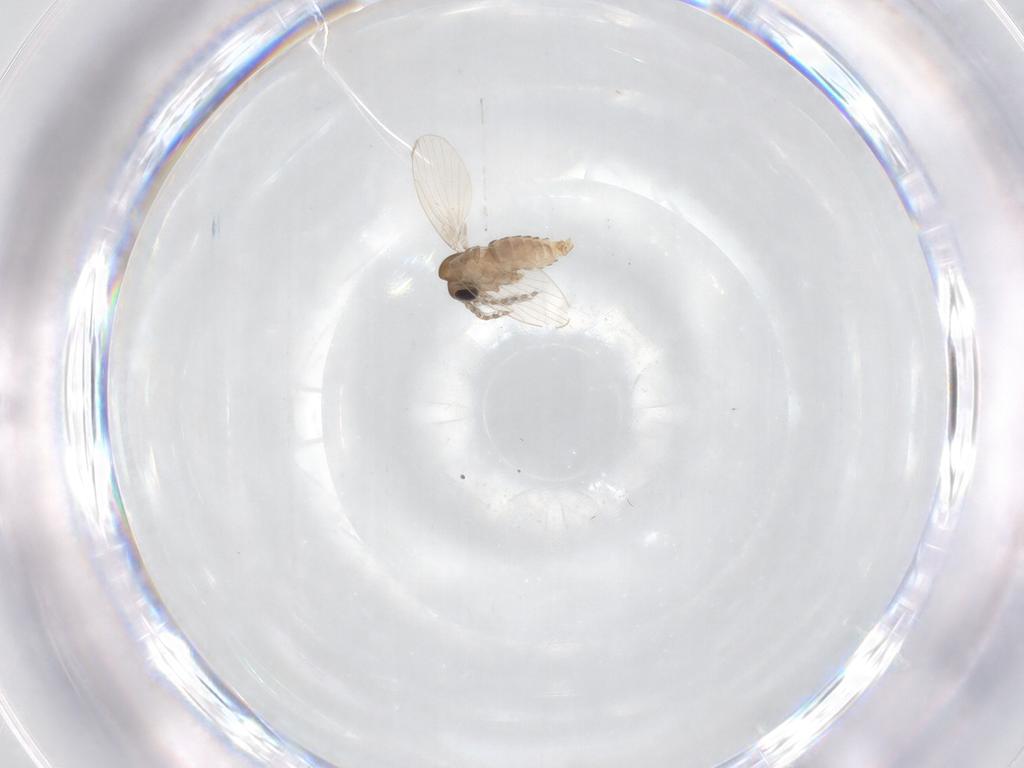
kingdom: Animalia
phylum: Arthropoda
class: Insecta
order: Diptera
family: Psychodidae
